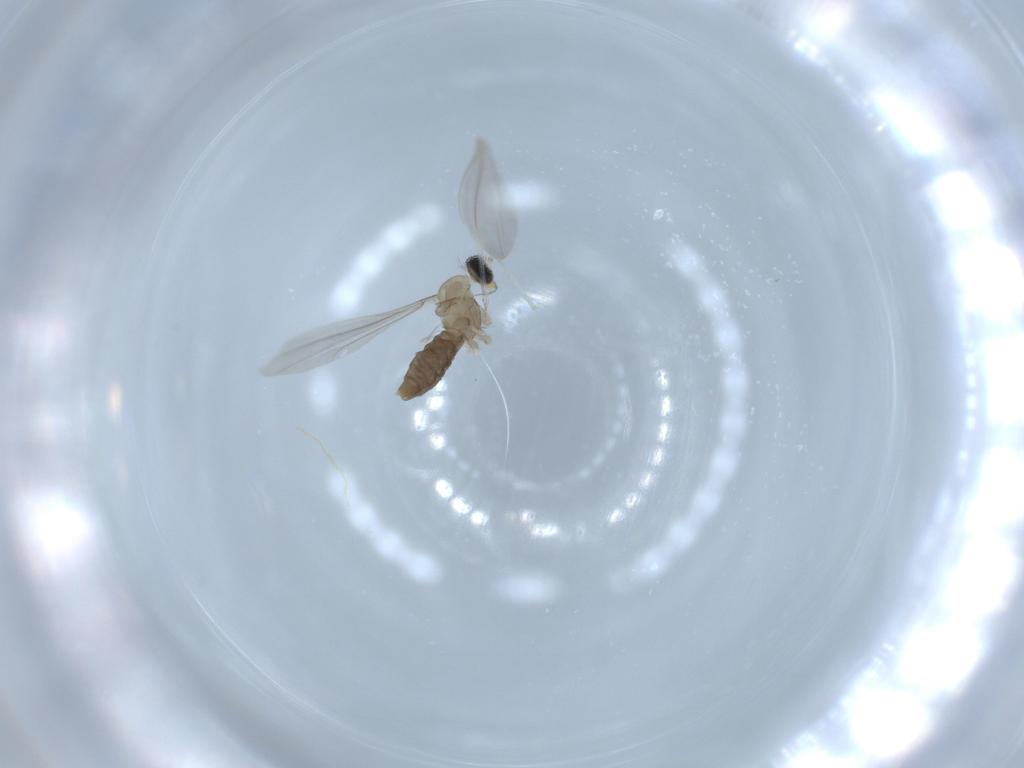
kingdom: Animalia
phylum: Arthropoda
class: Insecta
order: Diptera
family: Cecidomyiidae
